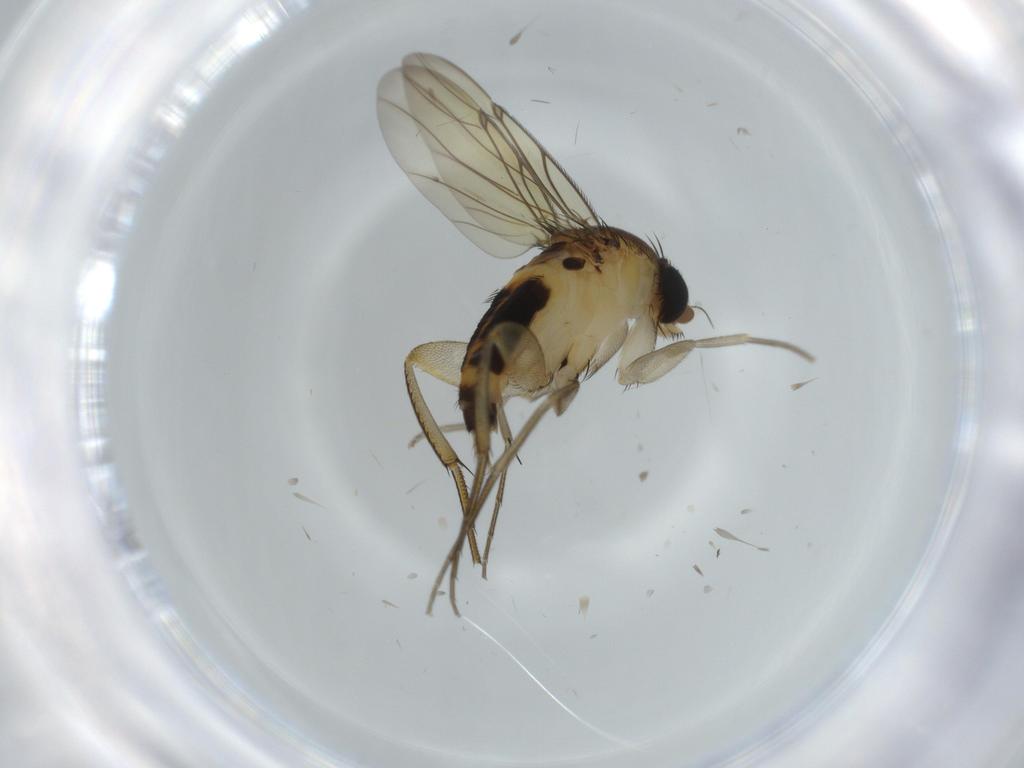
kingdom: Animalia
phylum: Arthropoda
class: Insecta
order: Diptera
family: Phoridae
